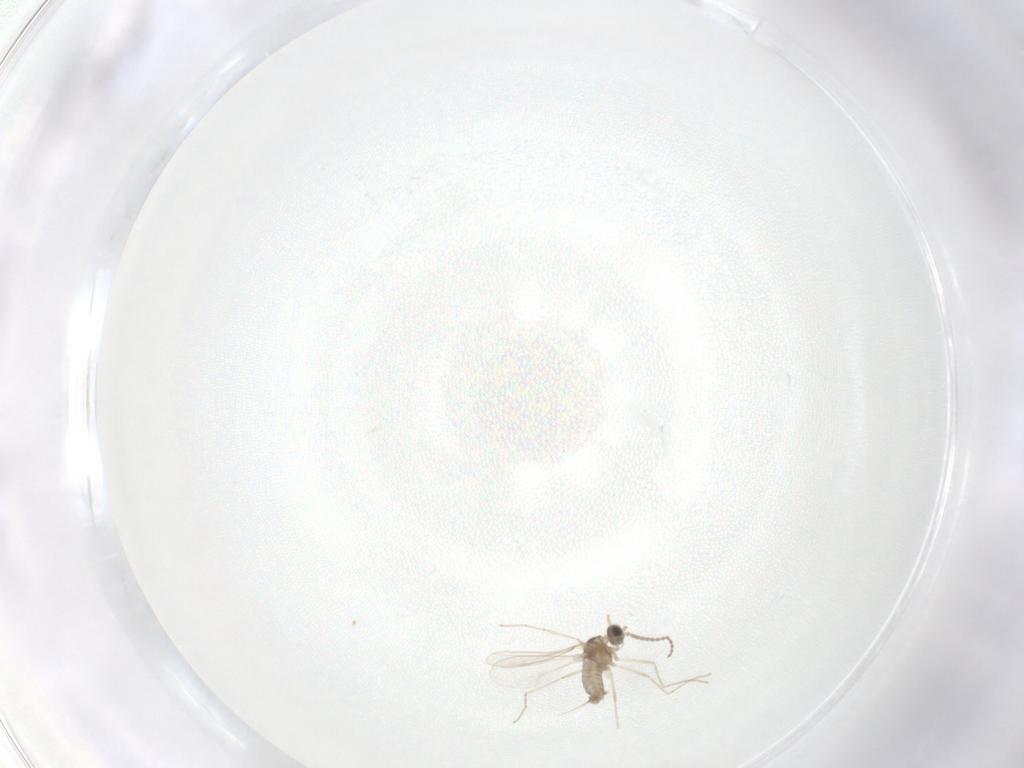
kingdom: Animalia
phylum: Arthropoda
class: Insecta
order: Diptera
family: Cecidomyiidae
